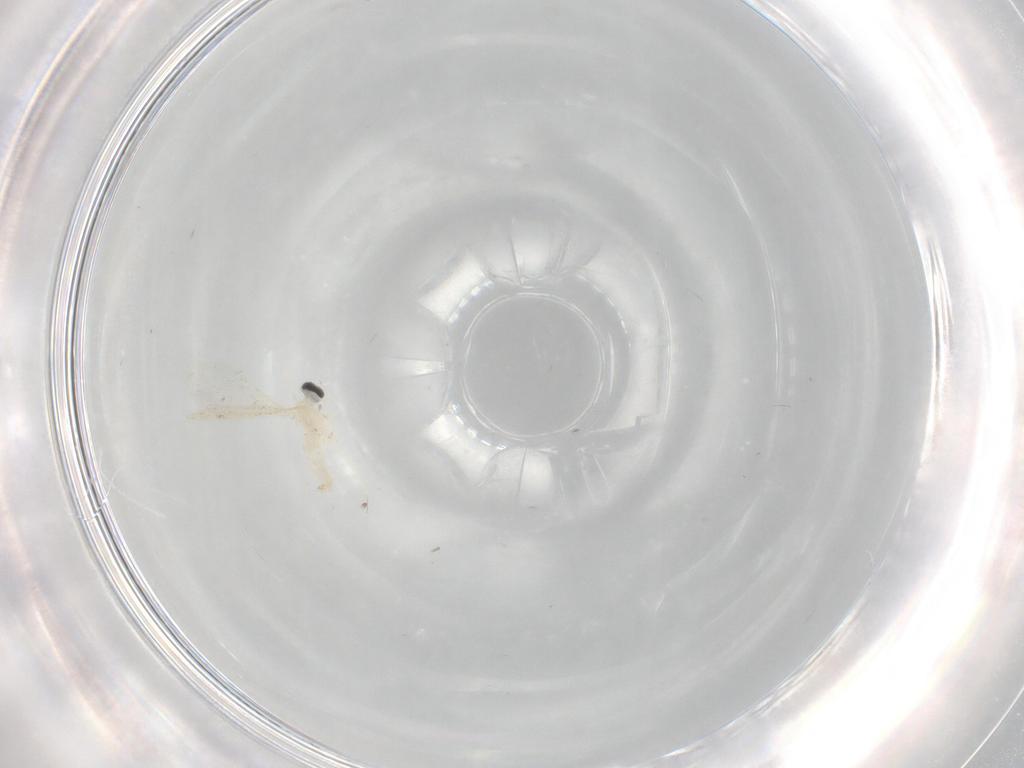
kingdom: Animalia
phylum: Arthropoda
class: Insecta
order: Diptera
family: Cecidomyiidae
